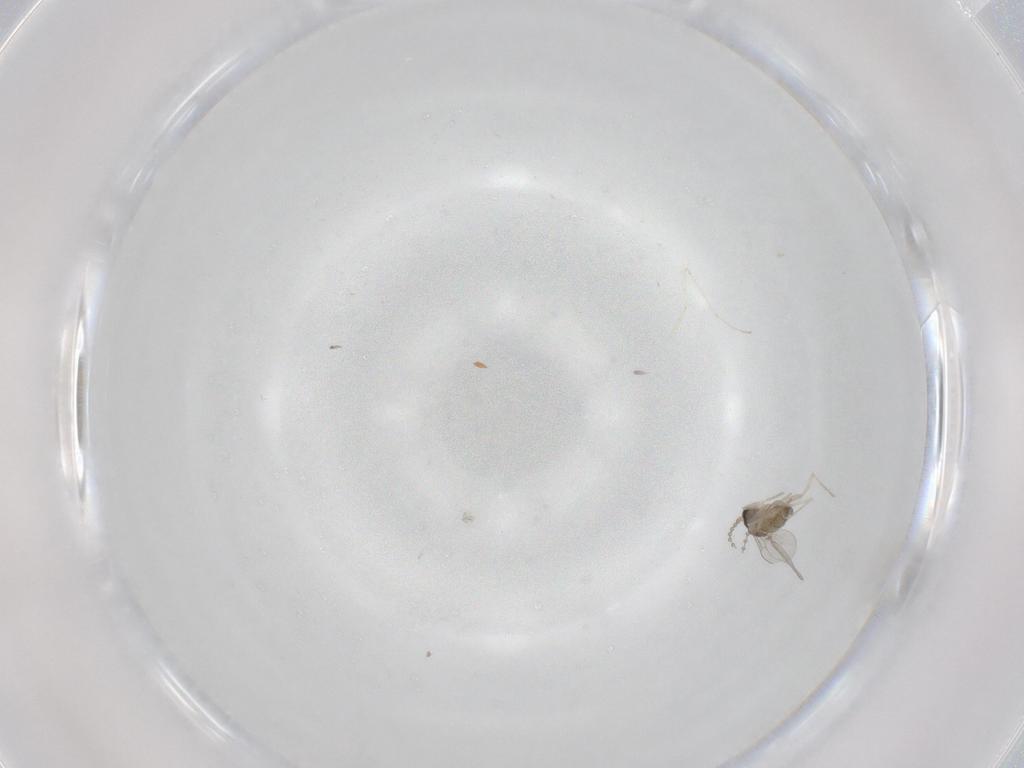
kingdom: Animalia
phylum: Arthropoda
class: Insecta
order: Diptera
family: Cecidomyiidae
